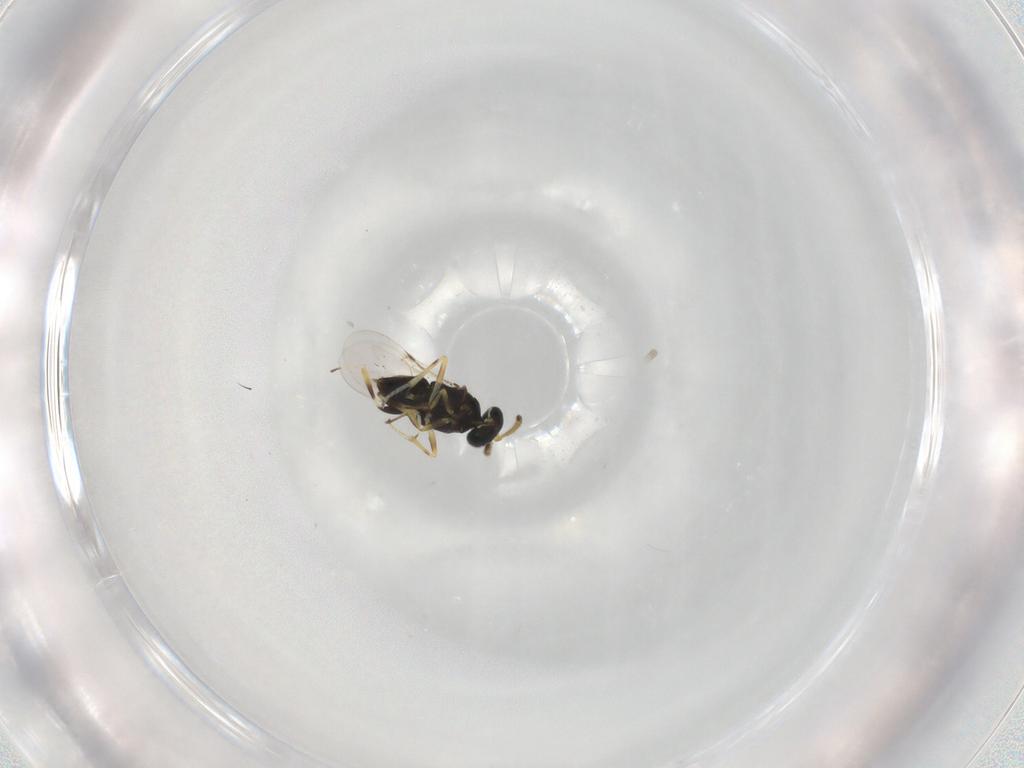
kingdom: Animalia
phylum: Arthropoda
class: Insecta
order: Hymenoptera
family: Encyrtidae
